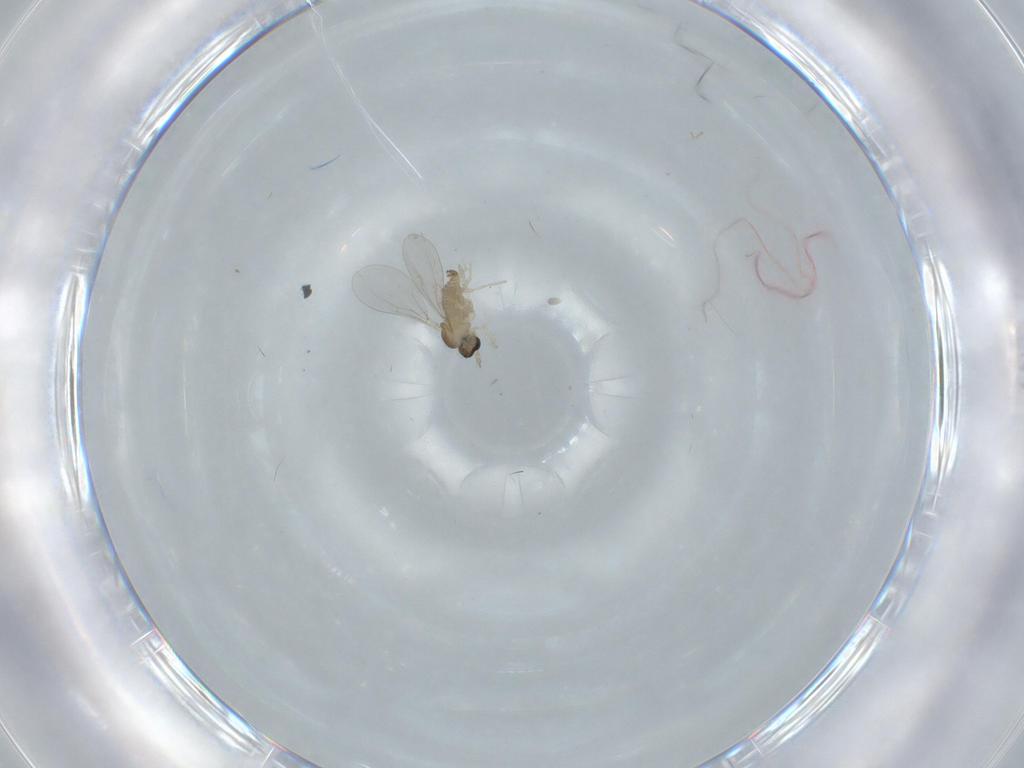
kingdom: Animalia
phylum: Arthropoda
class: Insecta
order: Diptera
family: Cecidomyiidae
